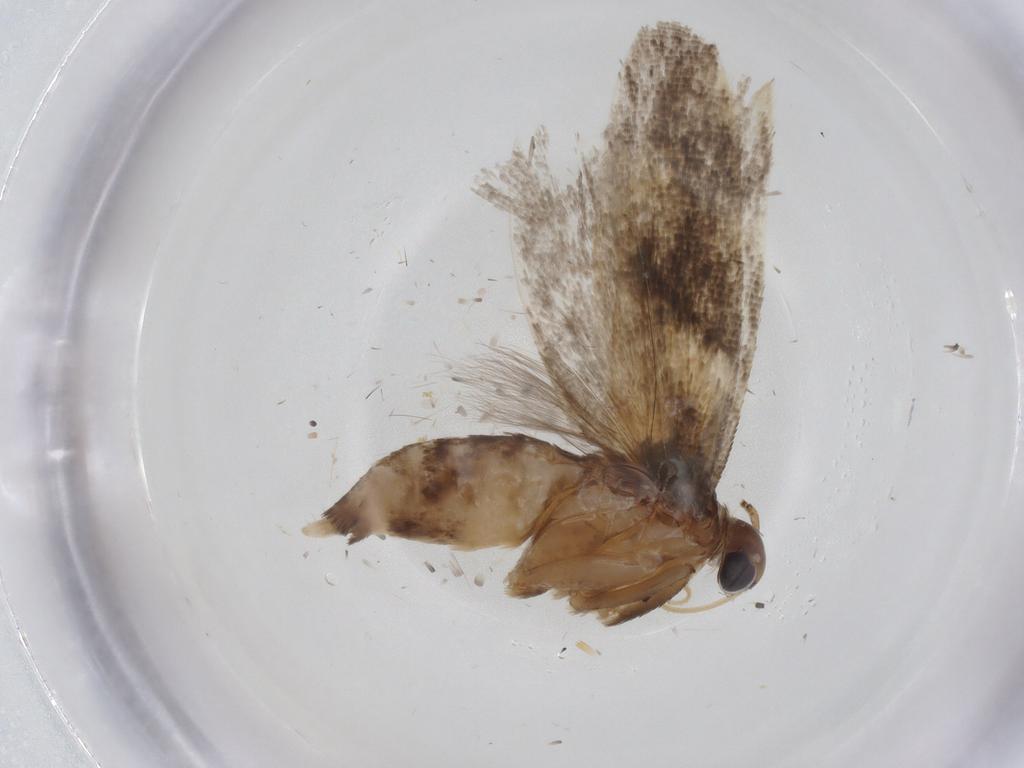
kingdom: Animalia
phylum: Arthropoda
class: Insecta
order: Lepidoptera
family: Gelechiidae
